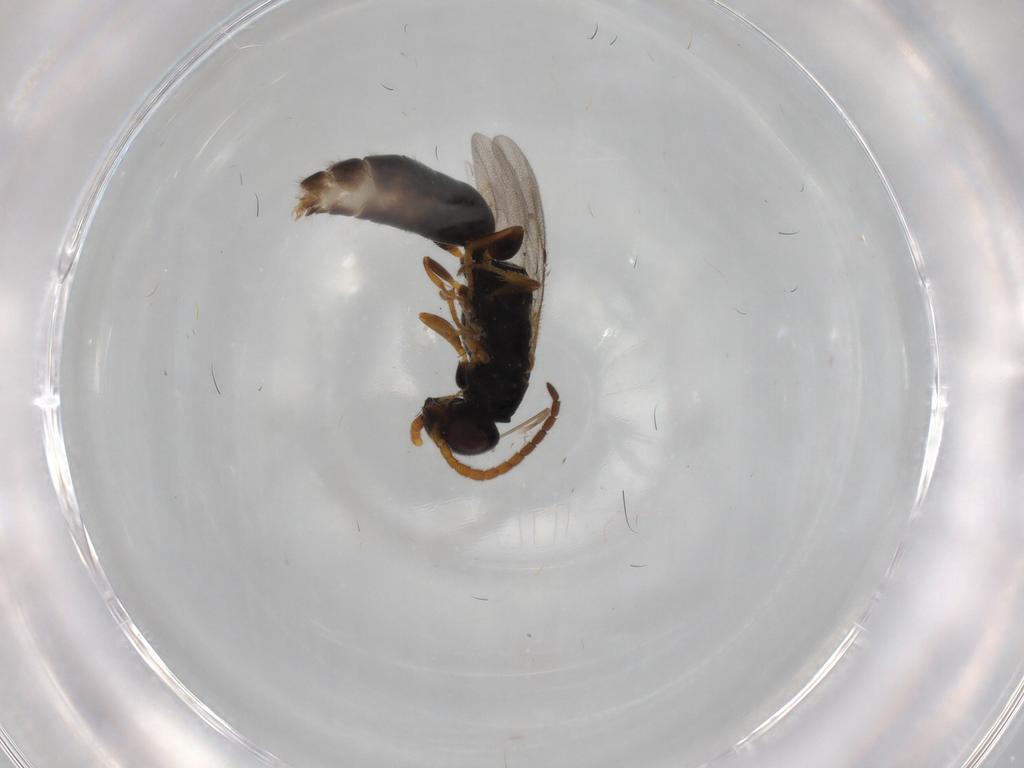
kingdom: Animalia
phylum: Arthropoda
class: Insecta
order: Hymenoptera
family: Bethylidae
